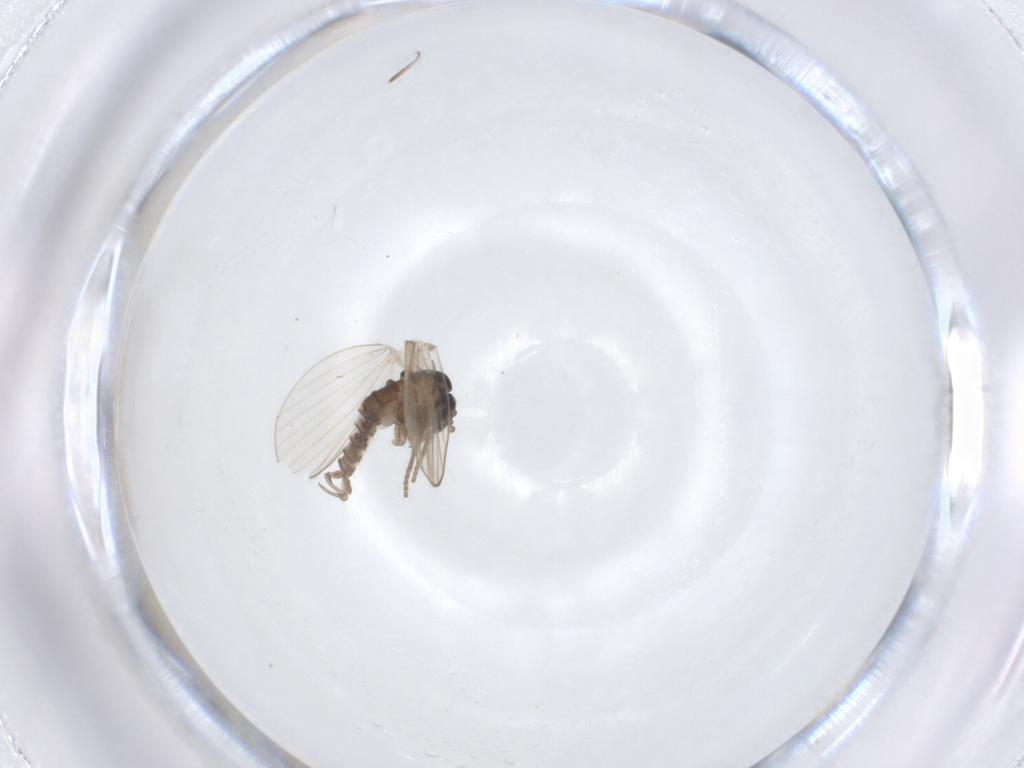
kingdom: Animalia
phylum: Arthropoda
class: Insecta
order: Diptera
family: Psychodidae
